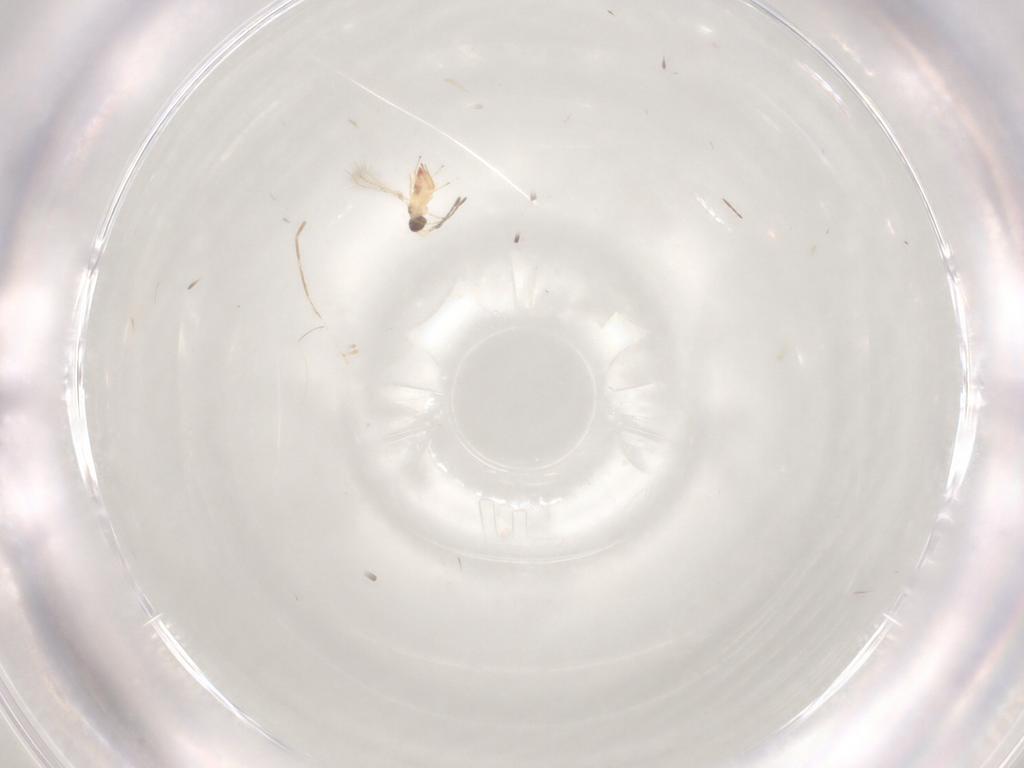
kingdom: Animalia
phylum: Arthropoda
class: Insecta
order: Hymenoptera
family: Mymaridae
